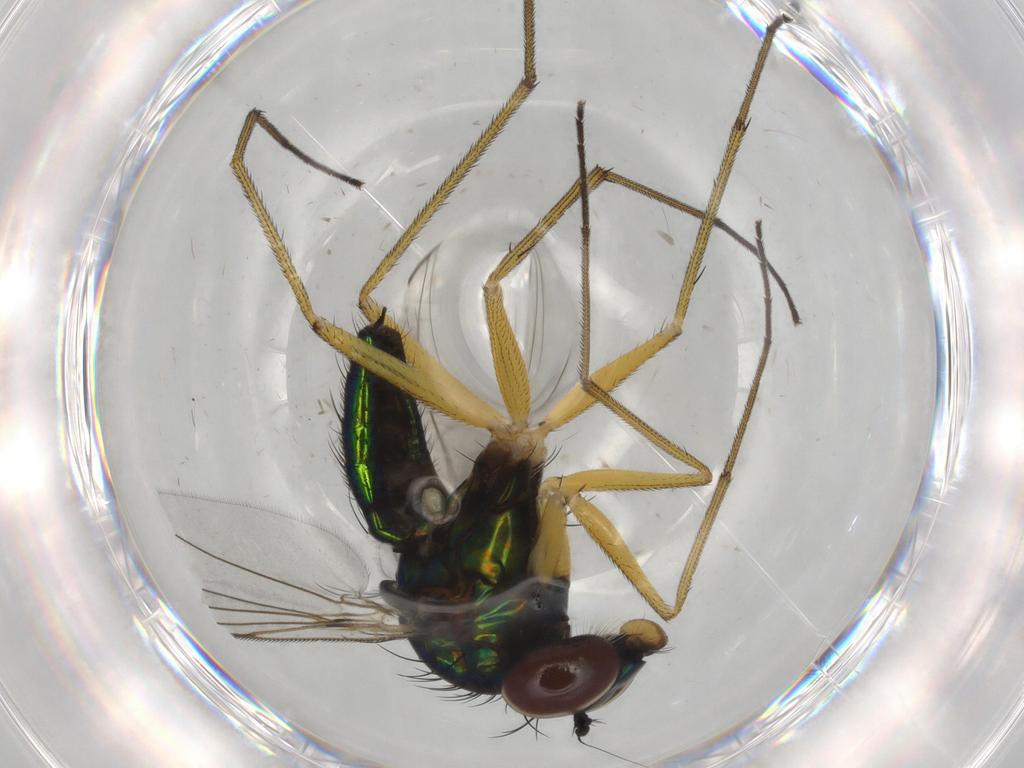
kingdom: Animalia
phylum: Arthropoda
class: Insecta
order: Diptera
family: Dolichopodidae
